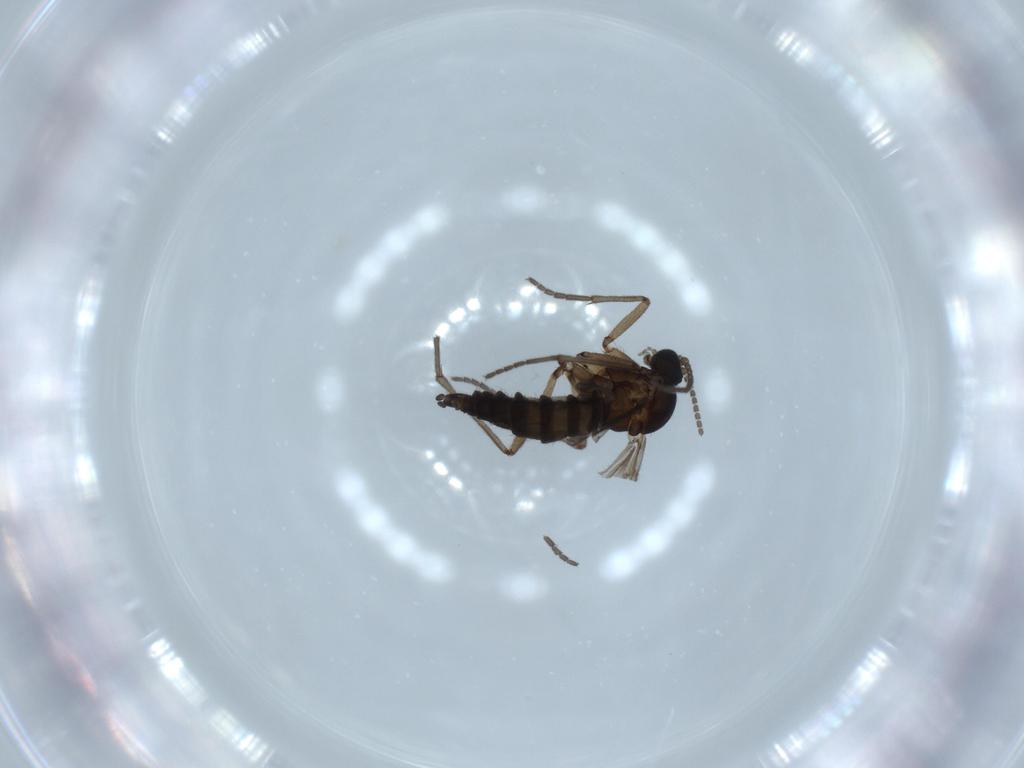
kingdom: Animalia
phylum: Arthropoda
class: Insecta
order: Diptera
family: Sciaridae
